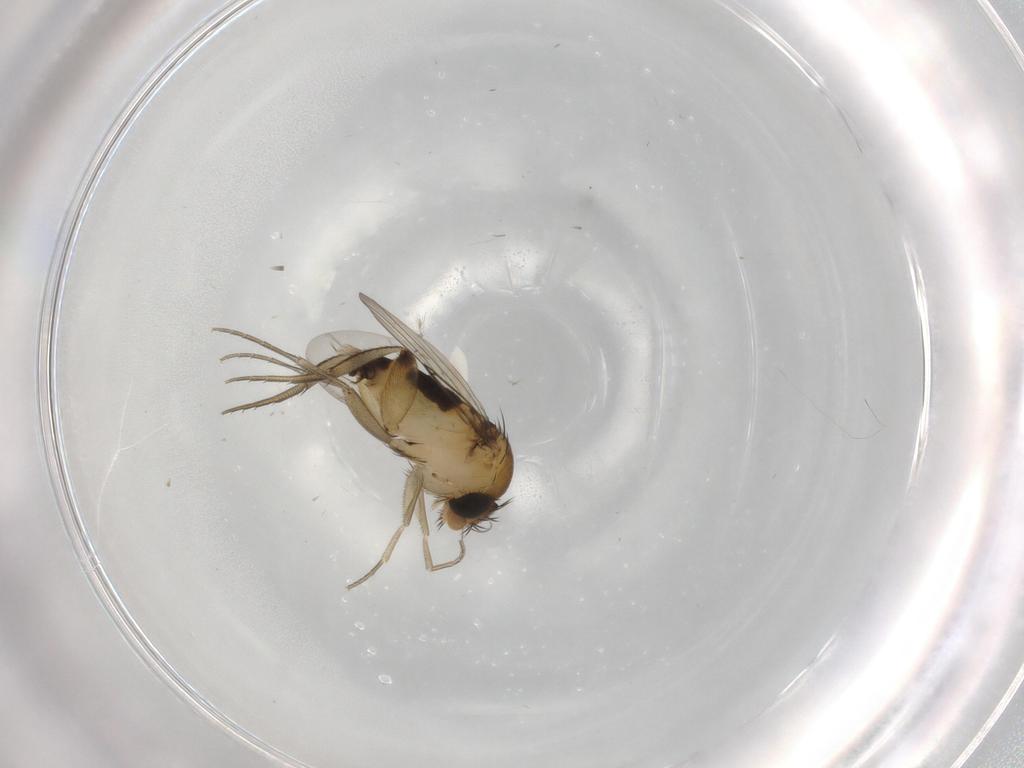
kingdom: Animalia
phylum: Arthropoda
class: Insecta
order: Diptera
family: Phoridae
